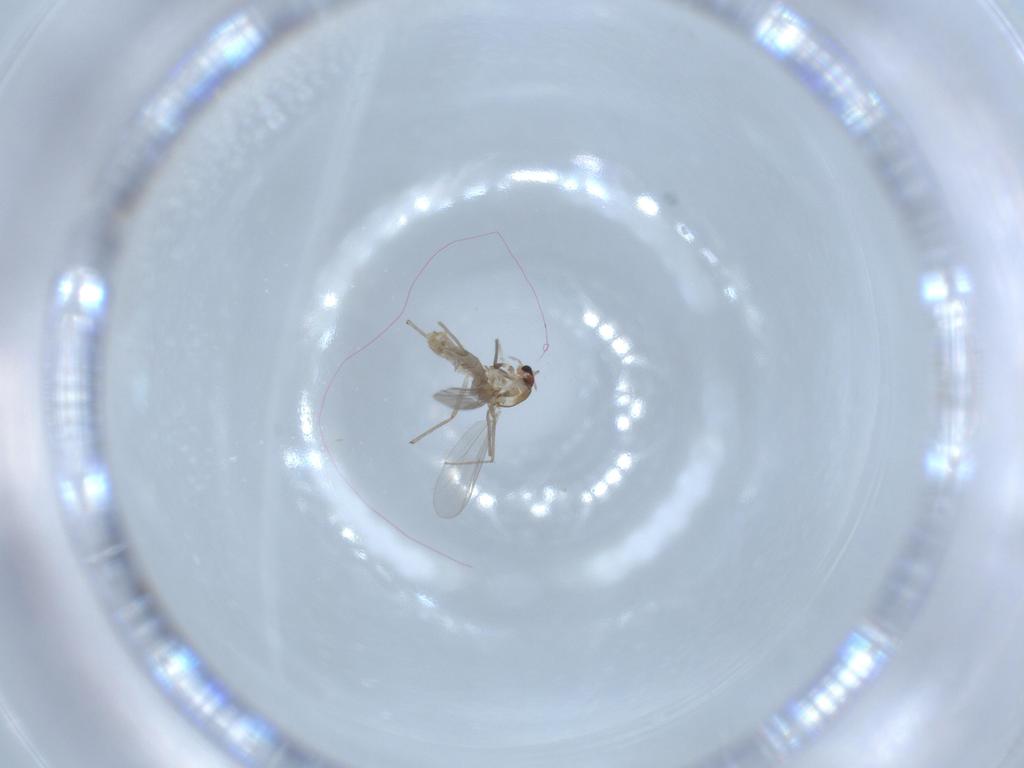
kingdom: Animalia
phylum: Arthropoda
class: Insecta
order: Diptera
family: Chironomidae
